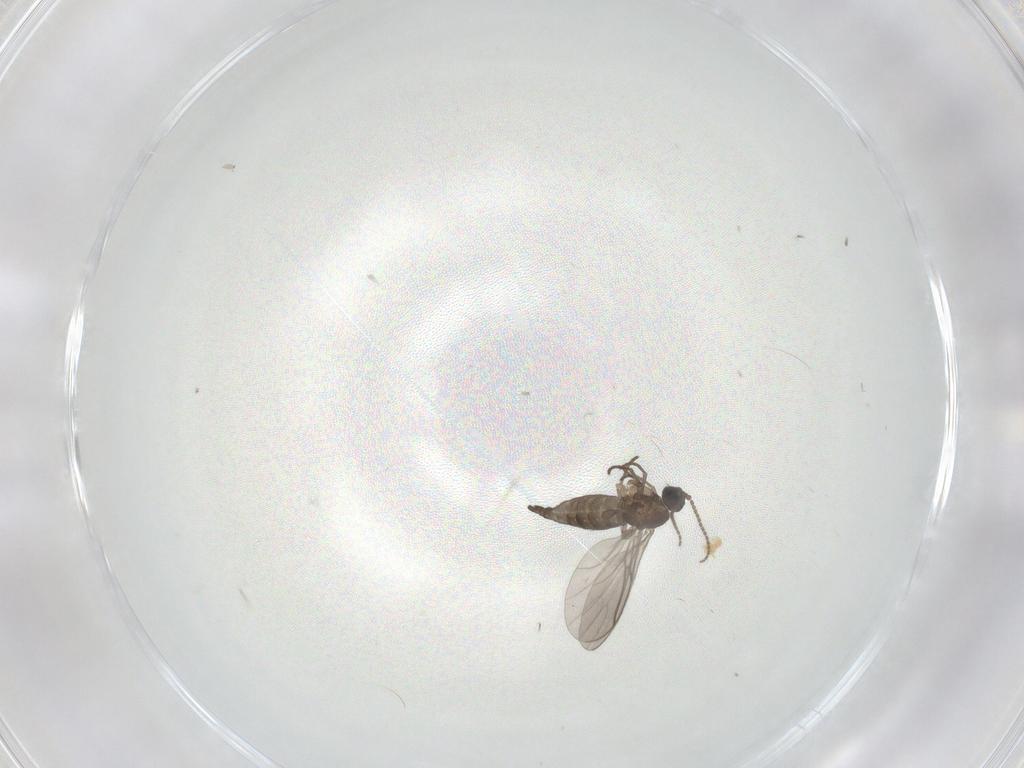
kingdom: Animalia
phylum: Arthropoda
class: Insecta
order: Diptera
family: Sciaridae
